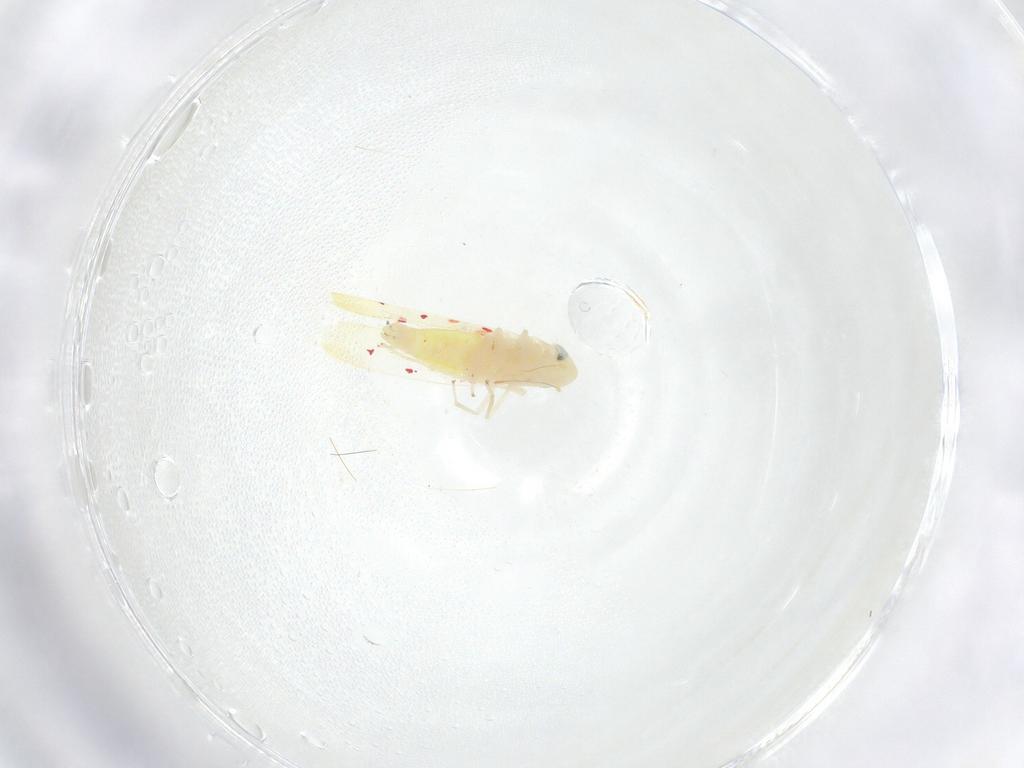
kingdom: Animalia
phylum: Arthropoda
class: Insecta
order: Hemiptera
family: Cicadellidae
